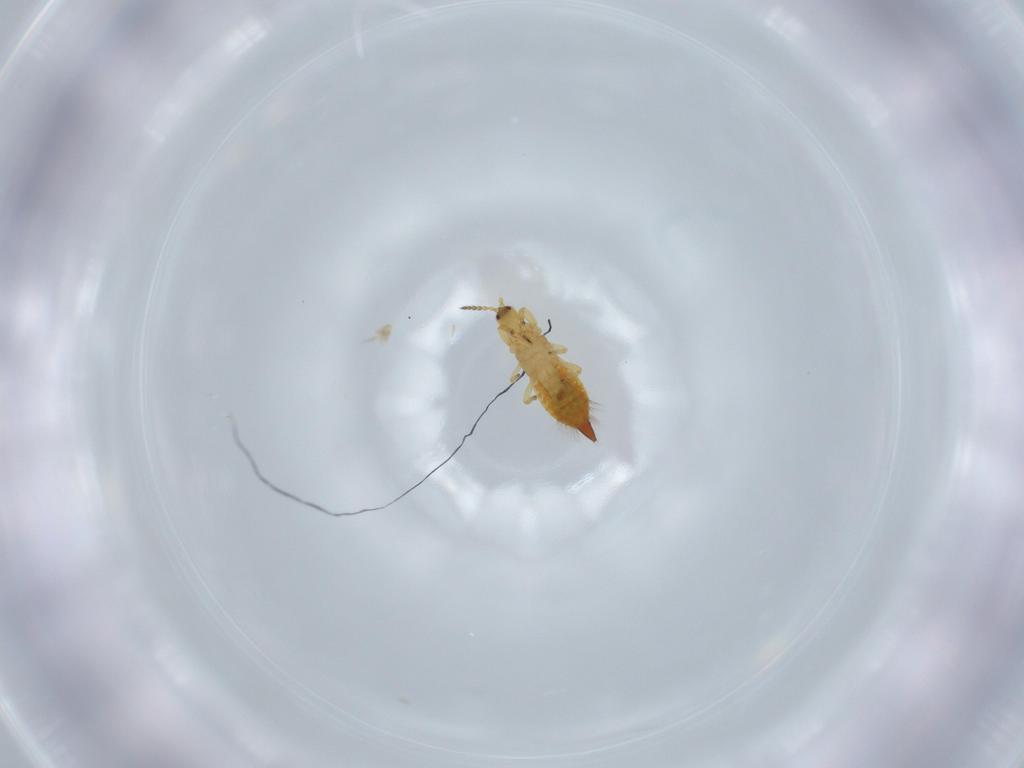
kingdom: Animalia
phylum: Arthropoda
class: Insecta
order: Thysanoptera
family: Phlaeothripidae
